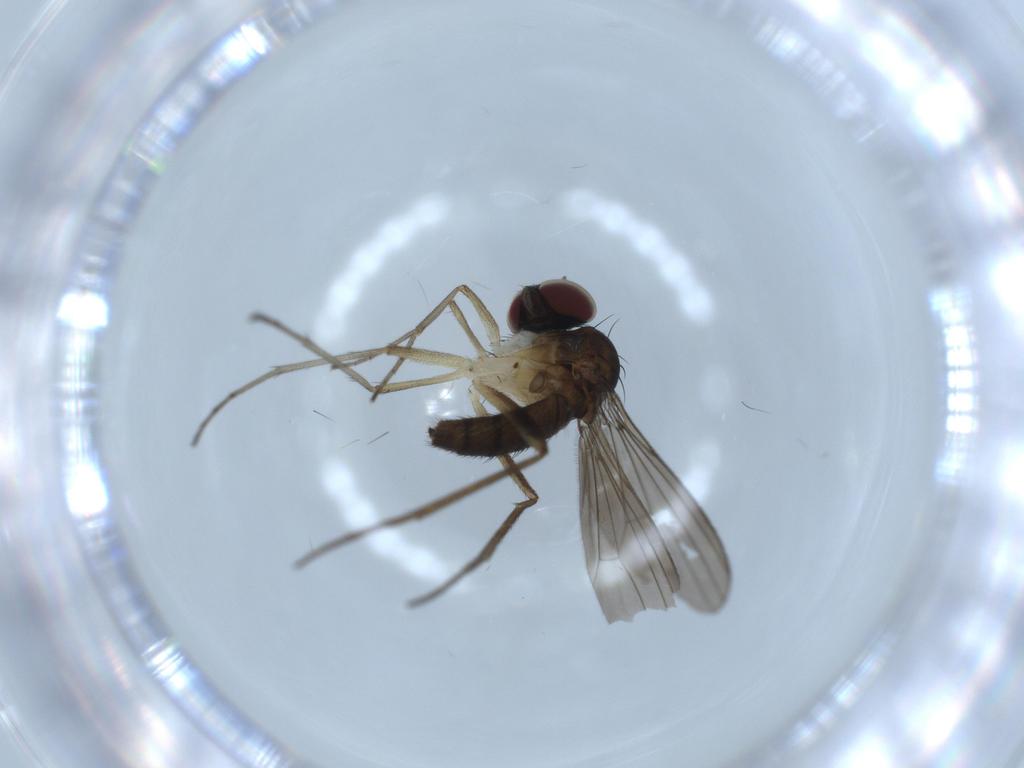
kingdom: Animalia
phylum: Arthropoda
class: Insecta
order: Diptera
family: Dolichopodidae
